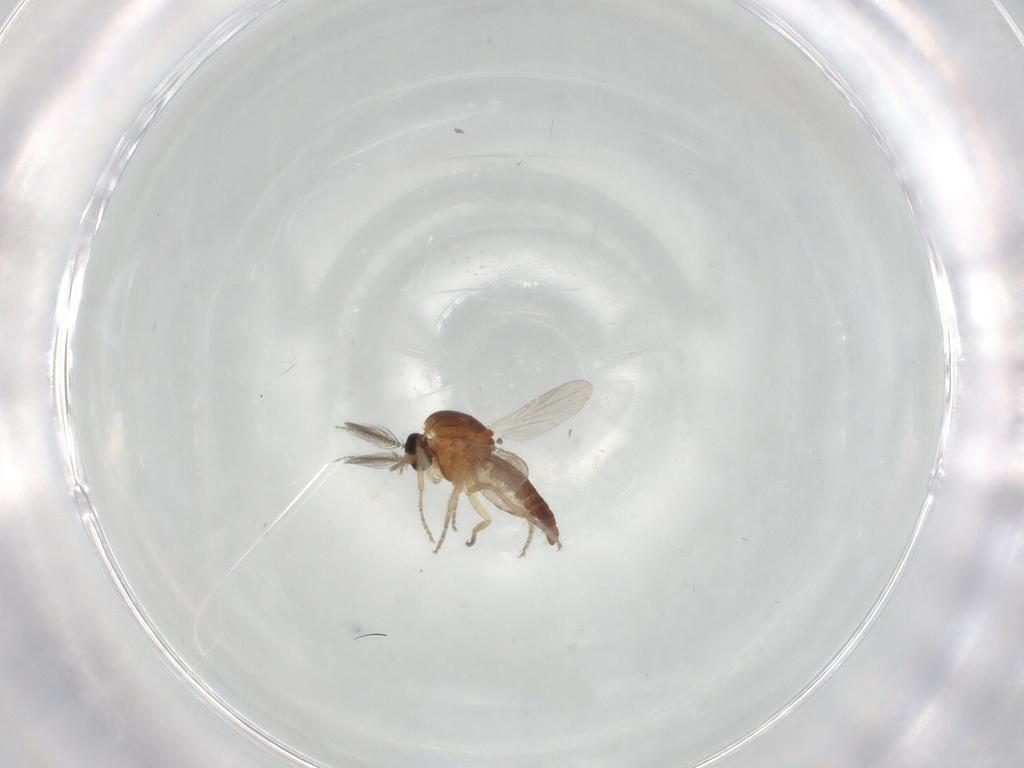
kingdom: Animalia
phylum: Arthropoda
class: Insecta
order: Diptera
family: Ceratopogonidae
